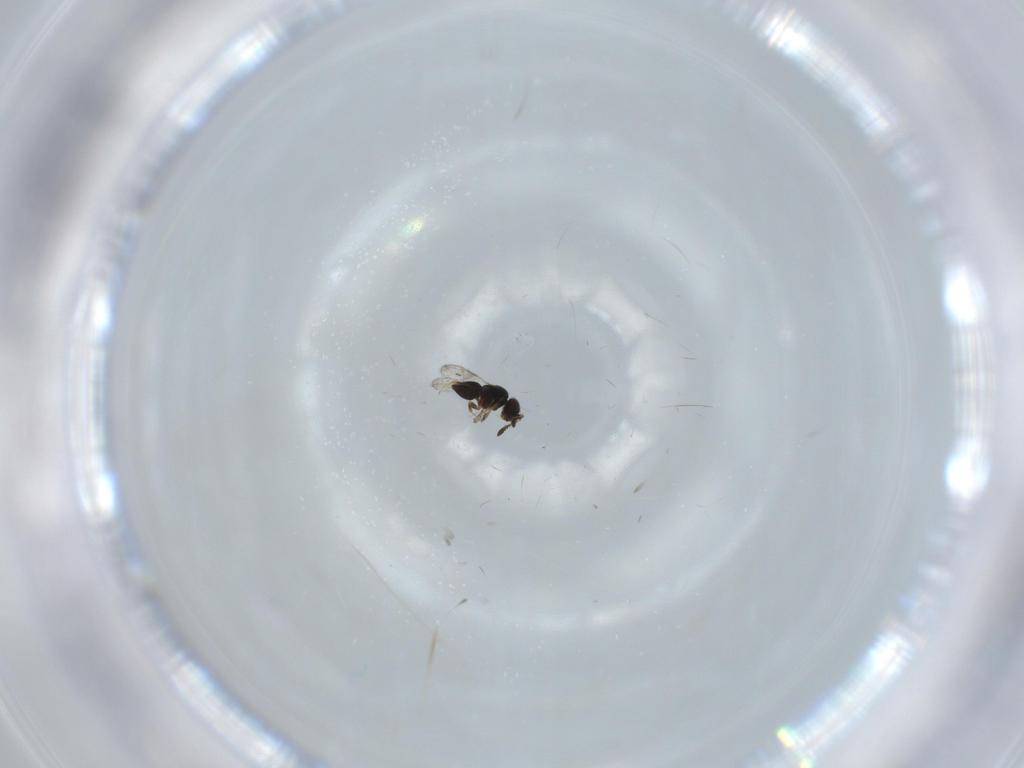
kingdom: Animalia
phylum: Arthropoda
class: Insecta
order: Hymenoptera
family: Ceraphronidae
